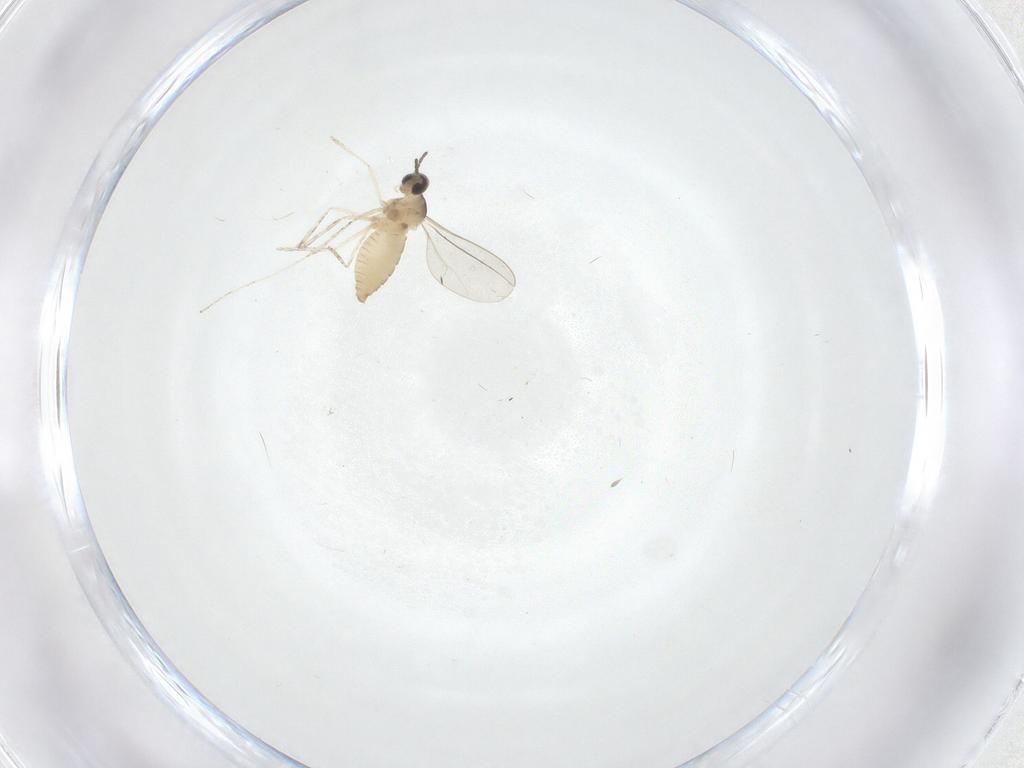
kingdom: Animalia
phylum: Arthropoda
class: Insecta
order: Diptera
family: Cecidomyiidae
